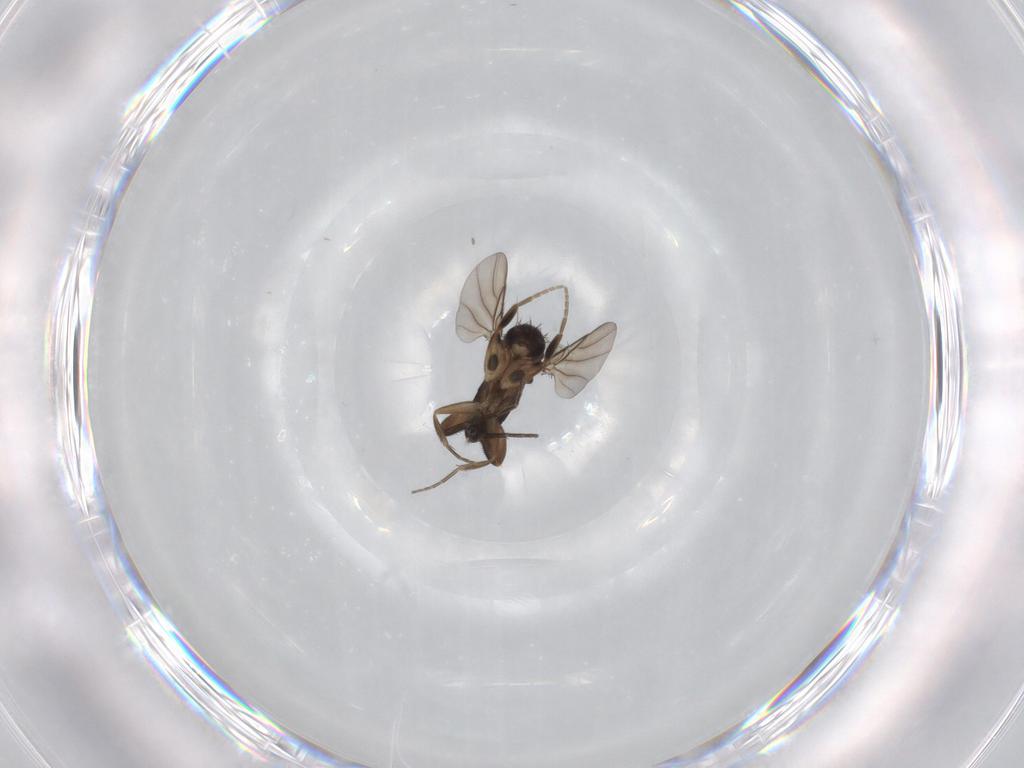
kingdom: Animalia
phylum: Arthropoda
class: Insecta
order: Diptera
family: Phoridae
